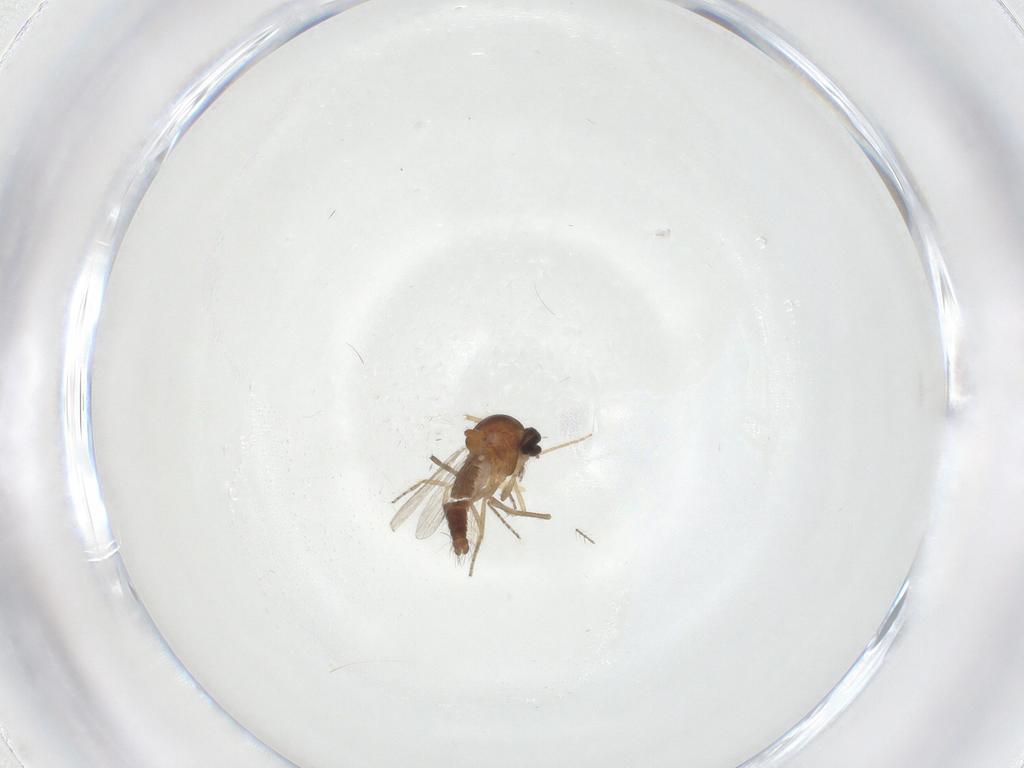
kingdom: Animalia
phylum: Arthropoda
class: Insecta
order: Diptera
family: Ceratopogonidae
